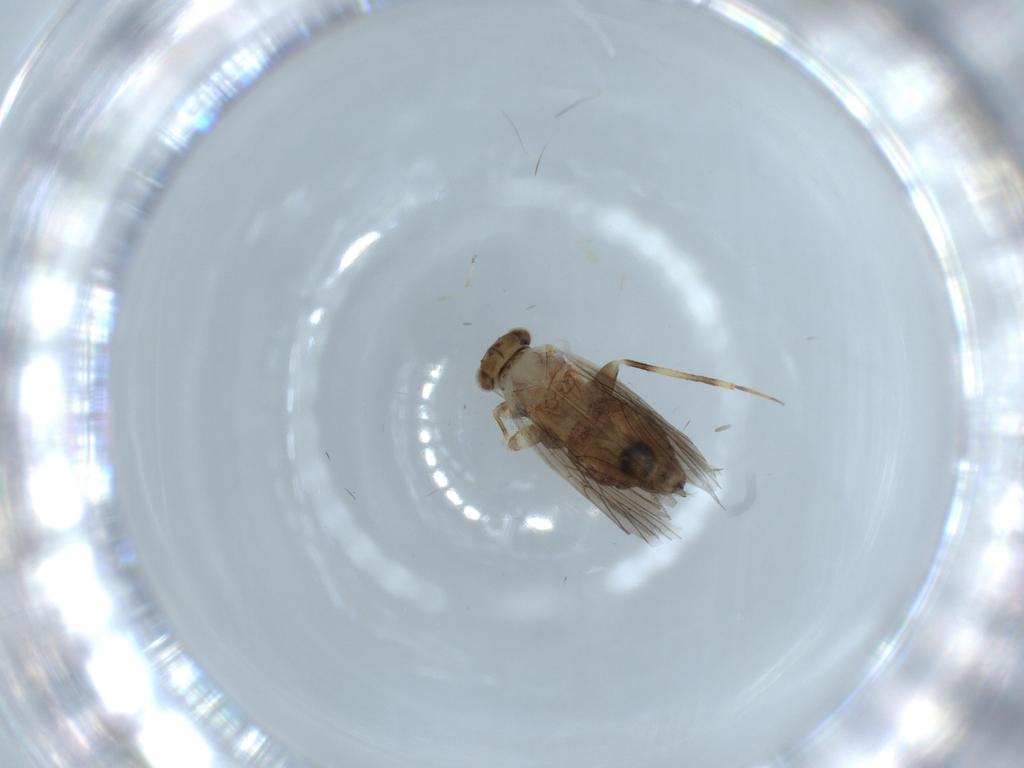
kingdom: Animalia
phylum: Arthropoda
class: Insecta
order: Psocodea
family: Lepidopsocidae
